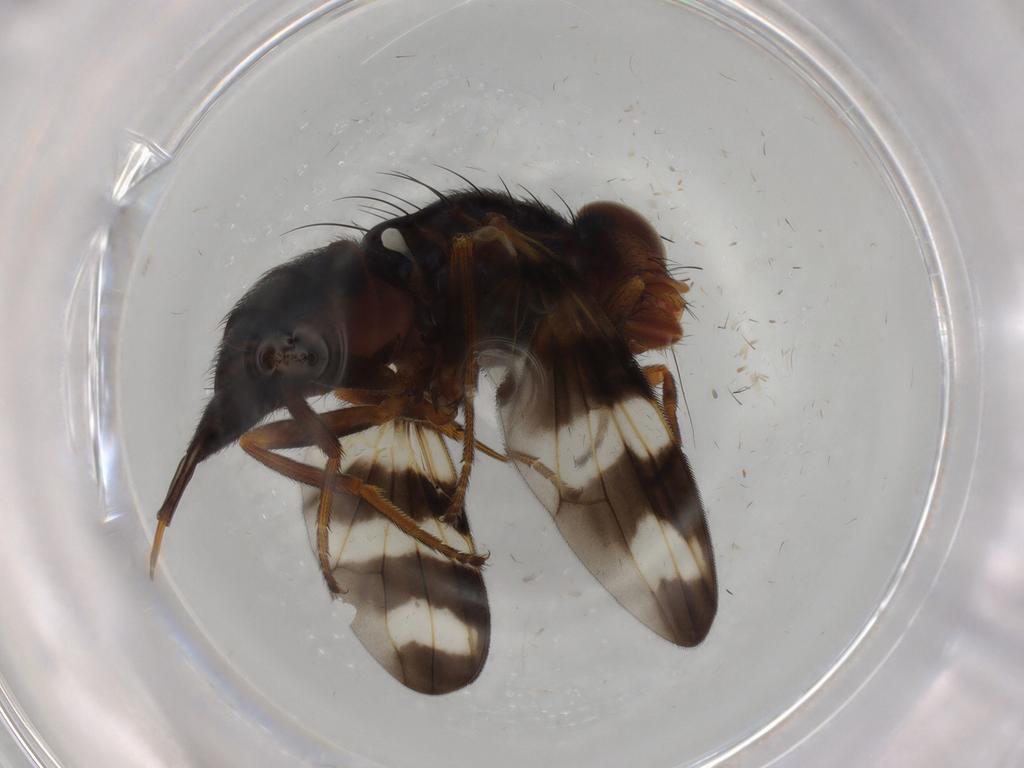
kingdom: Animalia
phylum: Arthropoda
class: Insecta
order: Diptera
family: Ulidiidae
